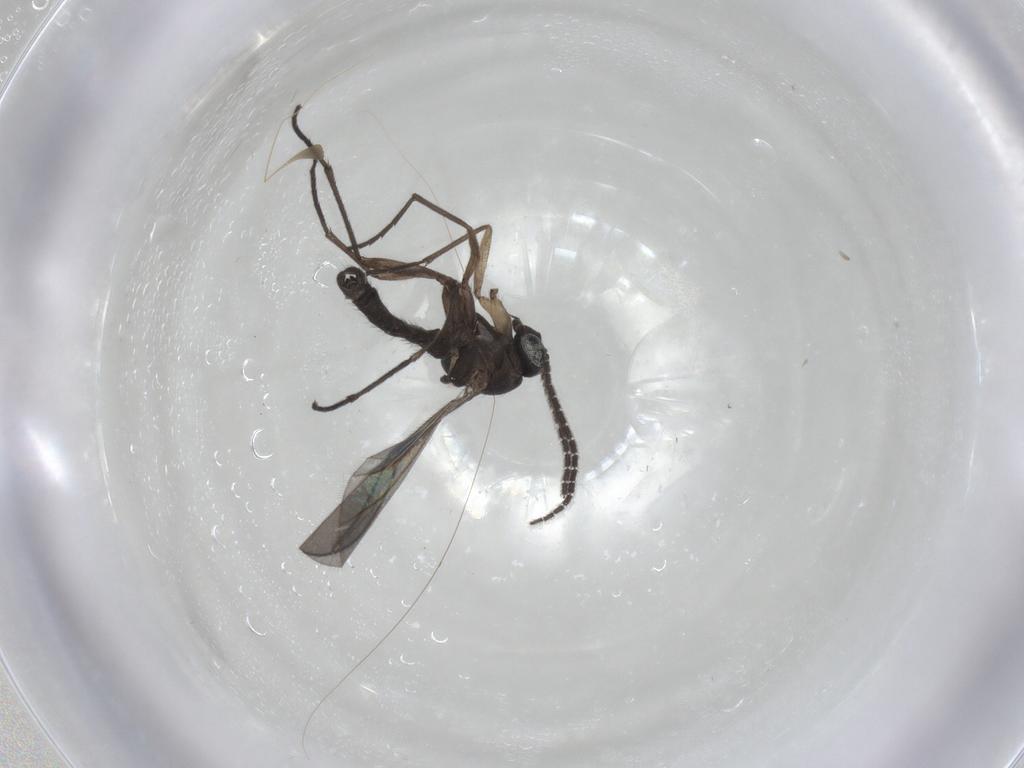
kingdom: Animalia
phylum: Arthropoda
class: Insecta
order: Diptera
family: Sciaridae
